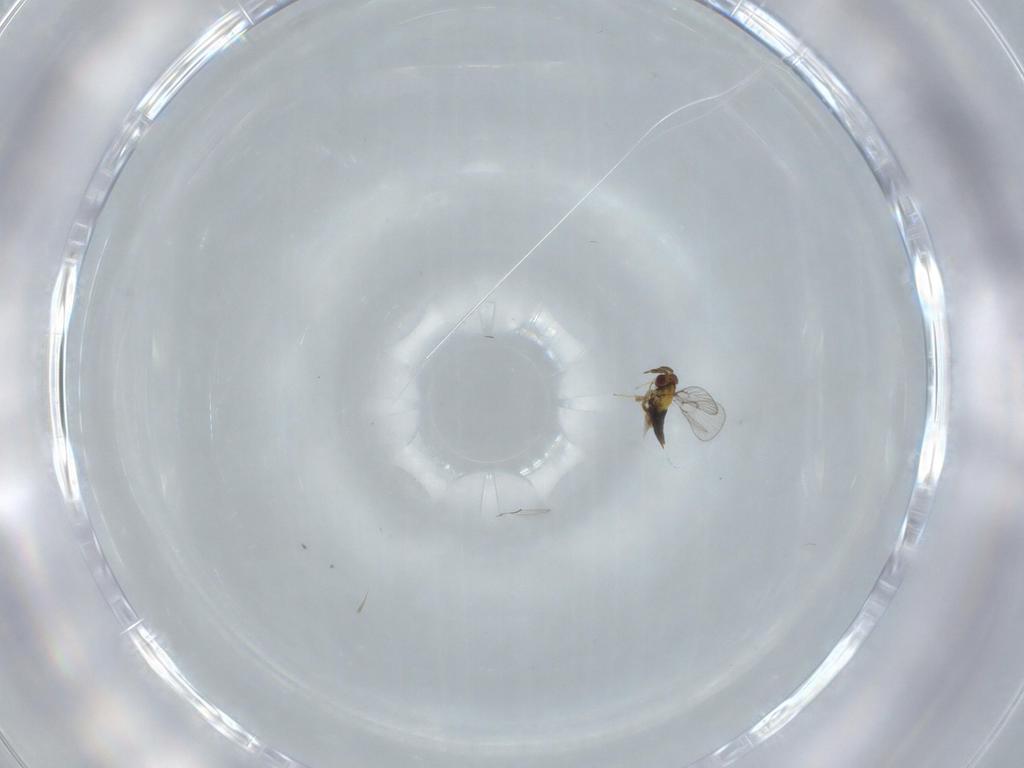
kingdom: Animalia
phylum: Arthropoda
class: Insecta
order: Hymenoptera
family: Trichogrammatidae
